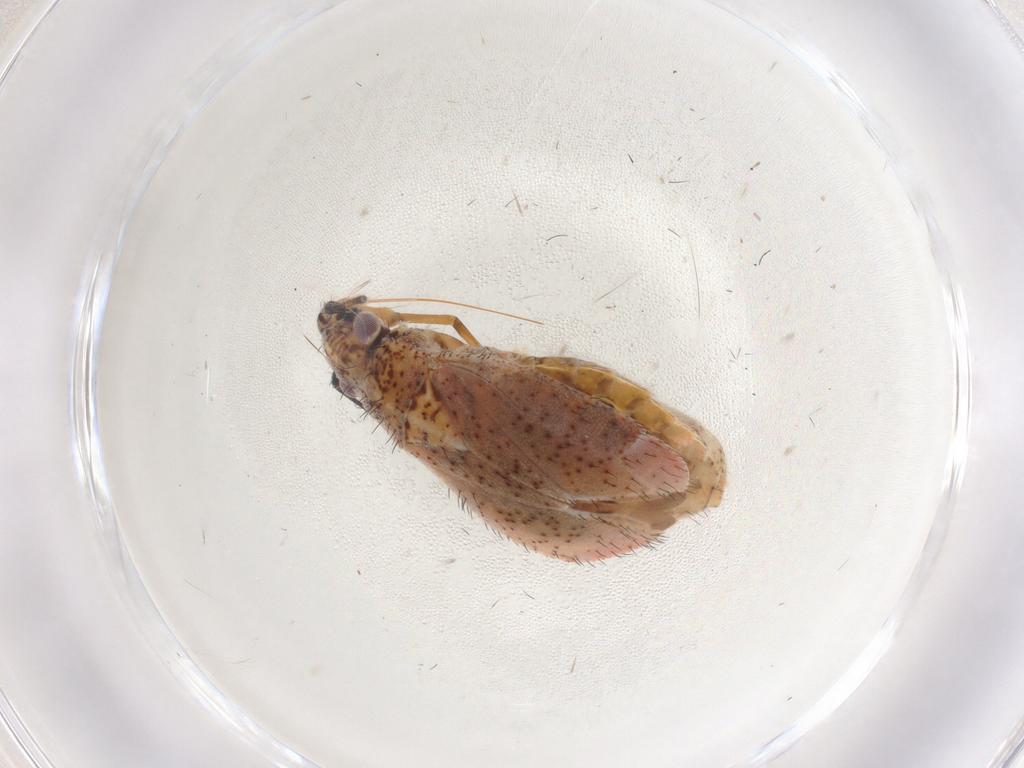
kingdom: Animalia
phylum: Arthropoda
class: Insecta
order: Hemiptera
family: Miridae
